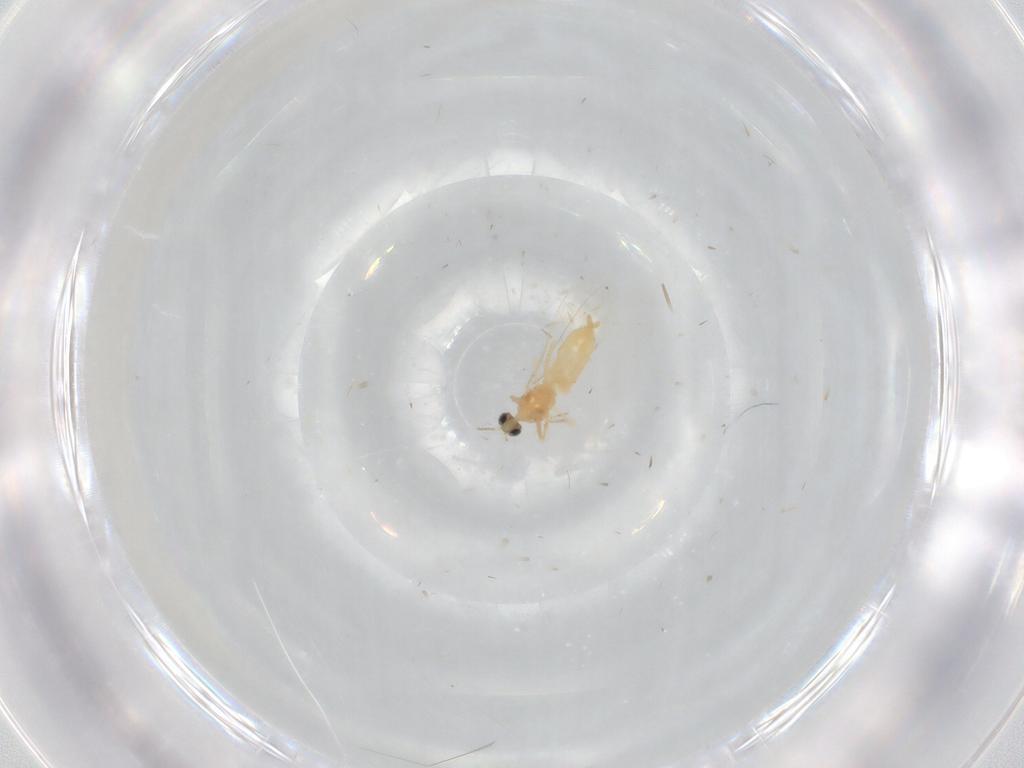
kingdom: Animalia
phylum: Arthropoda
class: Insecta
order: Diptera
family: Cecidomyiidae
